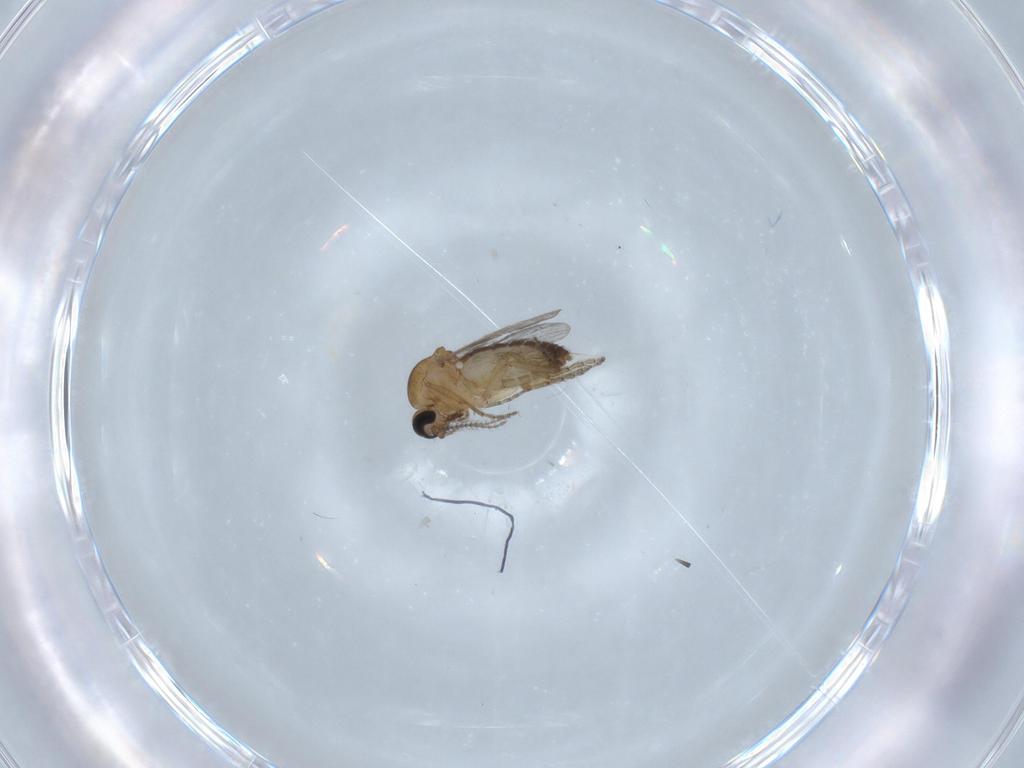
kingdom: Animalia
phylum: Arthropoda
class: Insecta
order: Diptera
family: Ceratopogonidae
